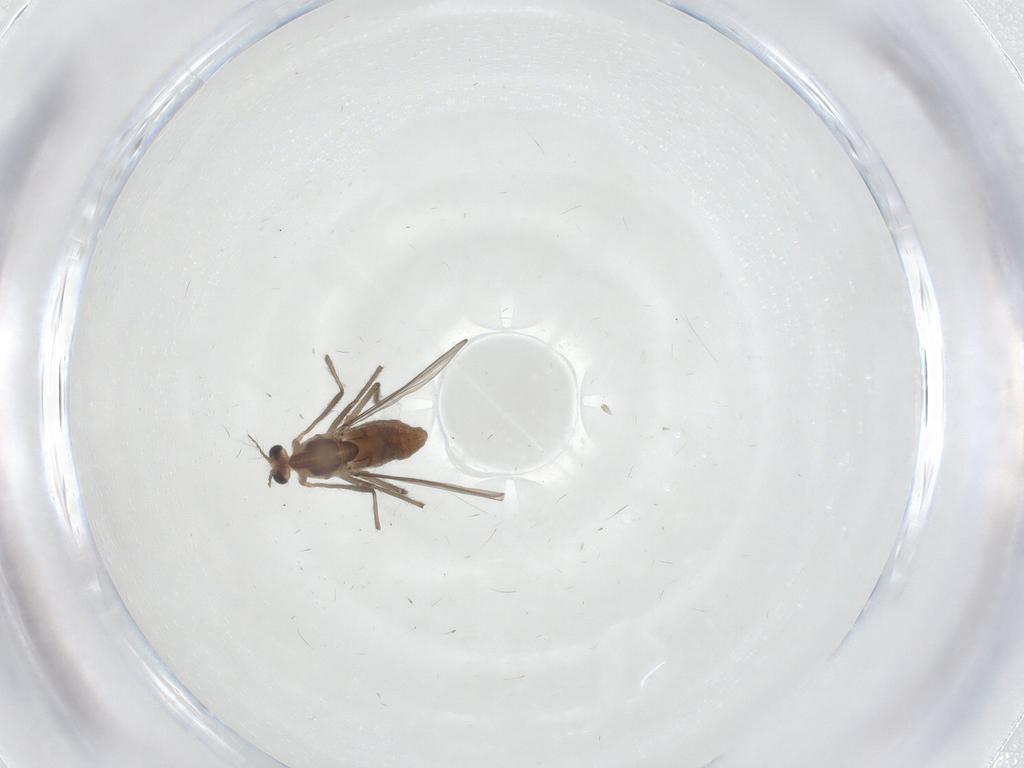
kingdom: Animalia
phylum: Arthropoda
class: Insecta
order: Diptera
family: Chironomidae
